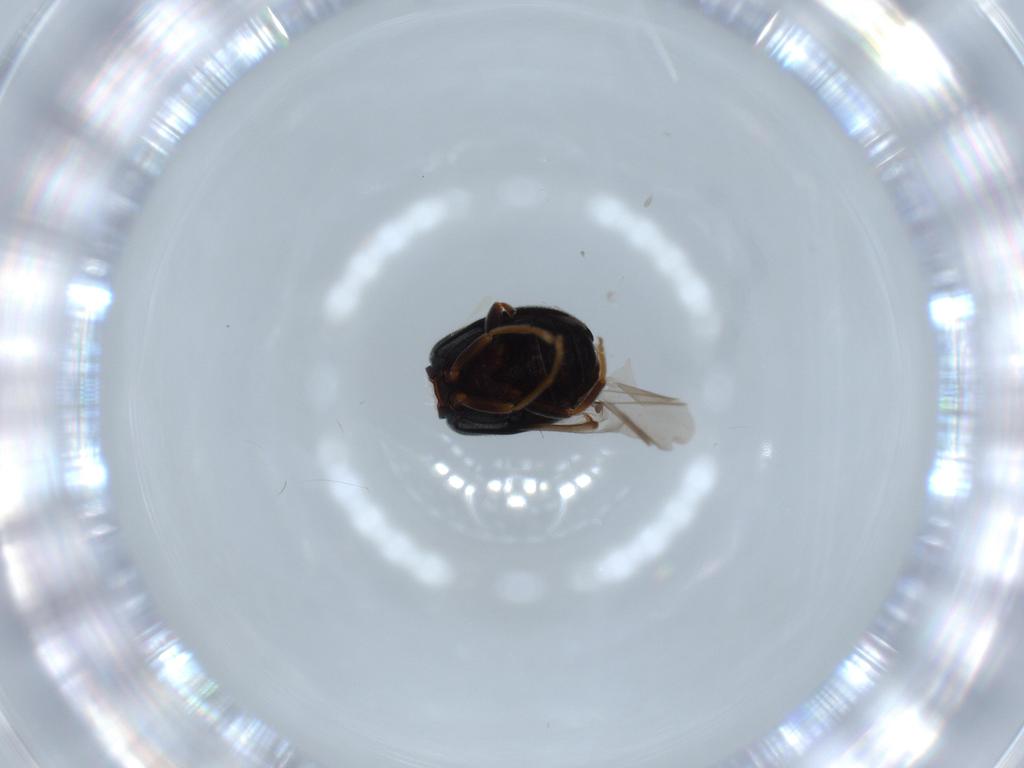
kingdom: Animalia
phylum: Arthropoda
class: Insecta
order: Coleoptera
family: Aderidae
